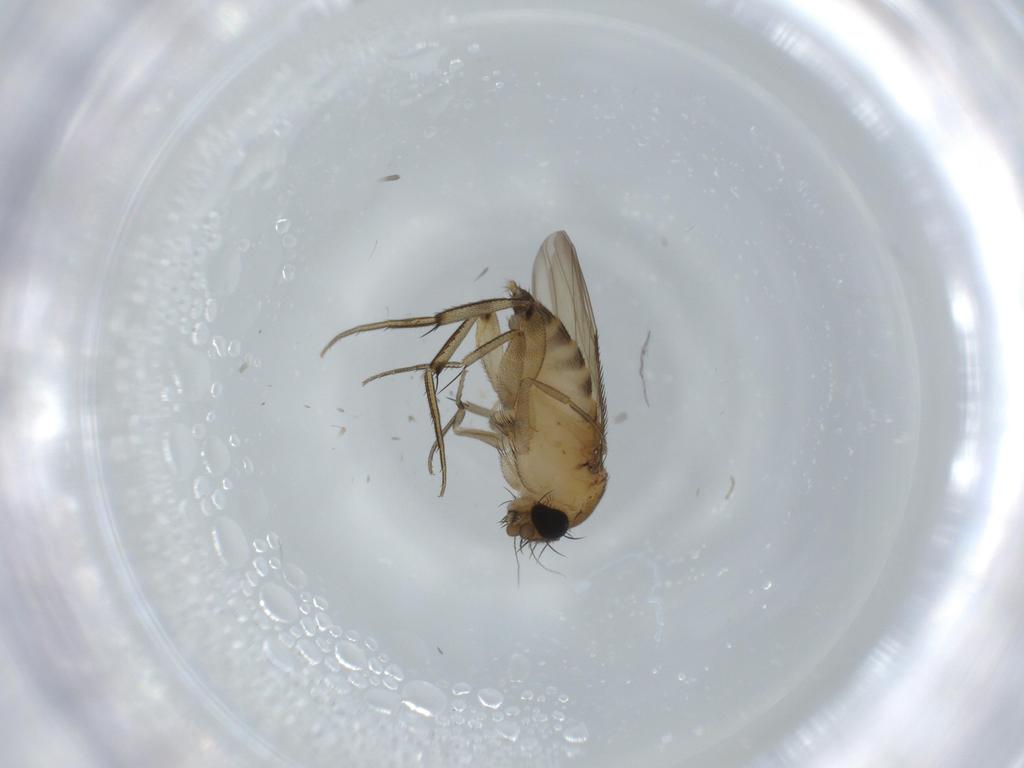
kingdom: Animalia
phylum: Arthropoda
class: Insecta
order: Diptera
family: Phoridae
